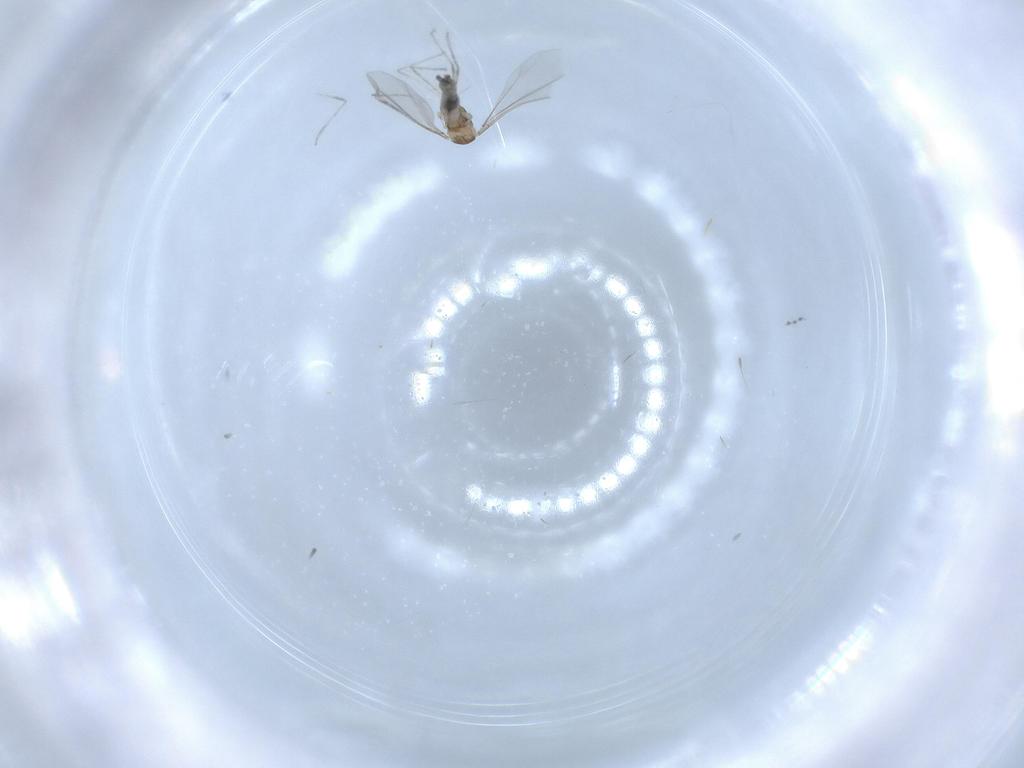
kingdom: Animalia
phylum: Arthropoda
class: Insecta
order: Diptera
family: Cecidomyiidae
